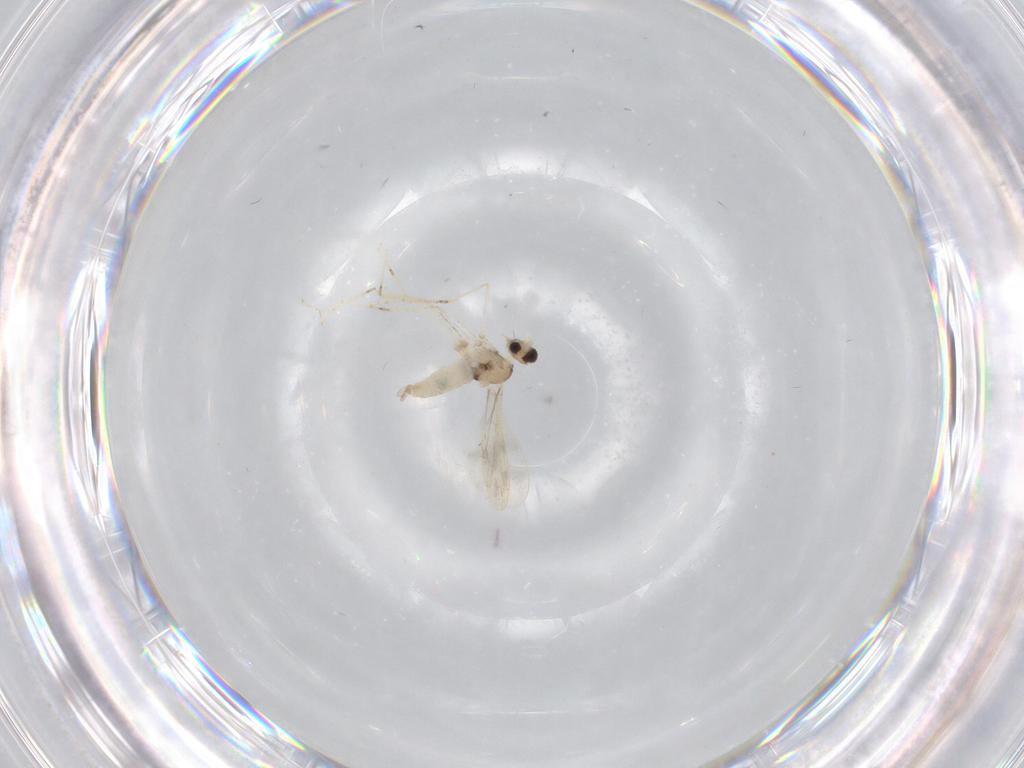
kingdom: Animalia
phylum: Arthropoda
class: Insecta
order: Diptera
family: Cecidomyiidae
